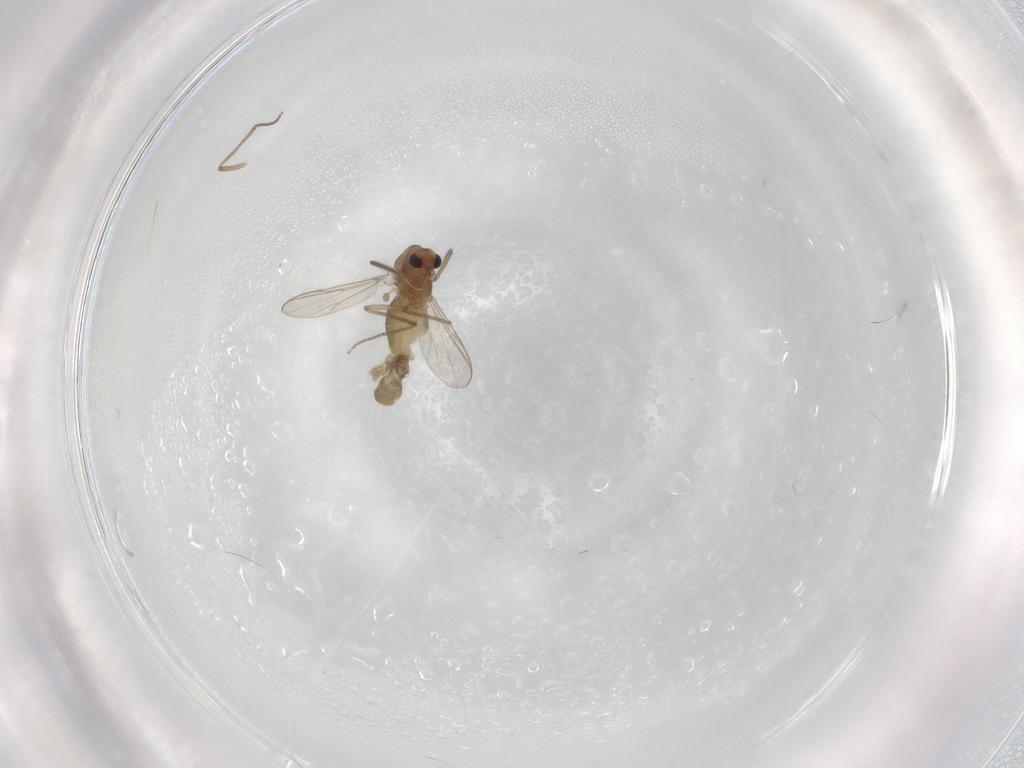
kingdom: Animalia
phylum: Arthropoda
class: Insecta
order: Diptera
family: Chironomidae
